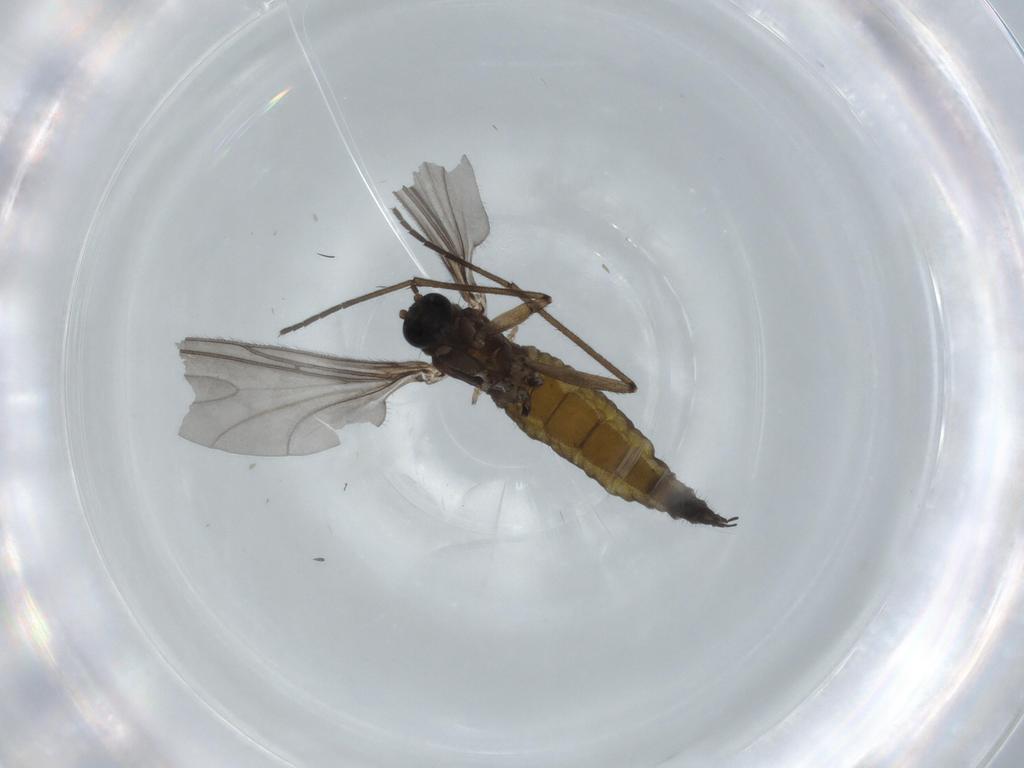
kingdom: Animalia
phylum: Arthropoda
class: Insecta
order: Diptera
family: Sciaridae
